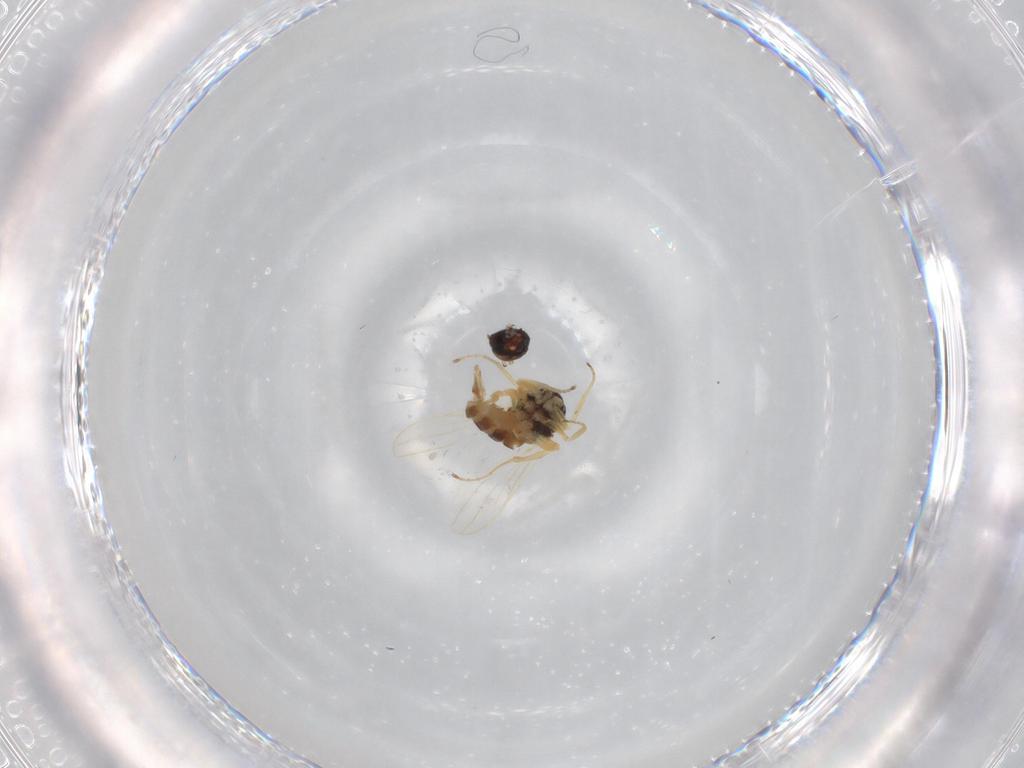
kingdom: Animalia
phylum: Arthropoda
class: Insecta
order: Diptera
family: Hybotidae
